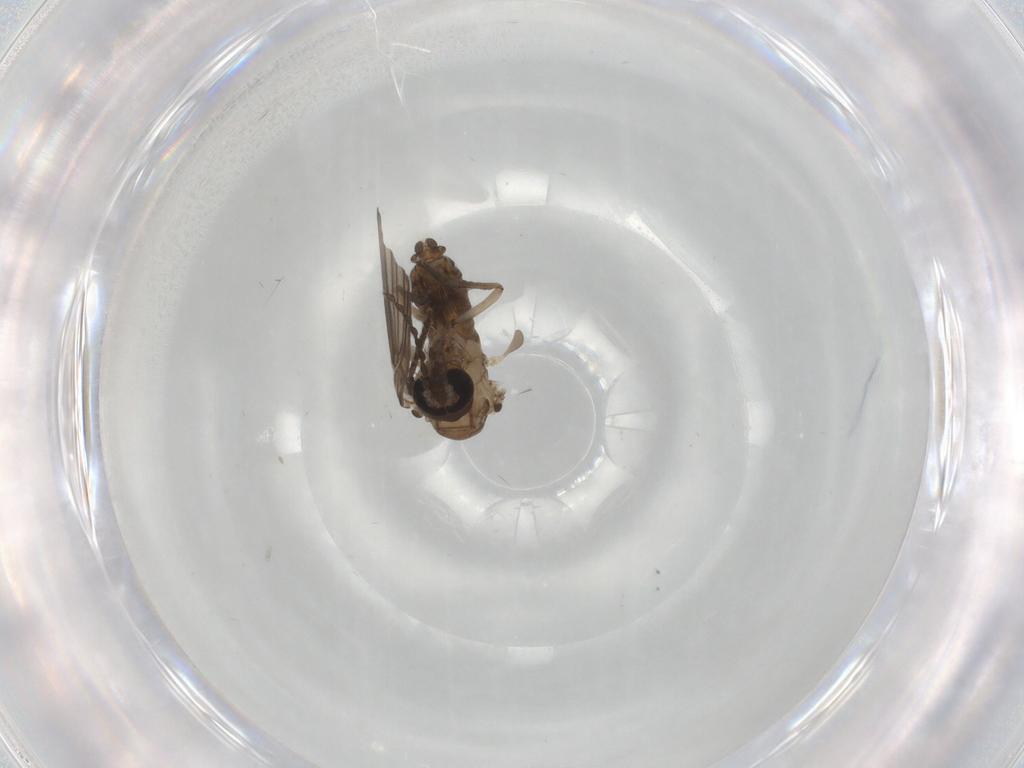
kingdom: Animalia
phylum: Arthropoda
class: Insecta
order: Diptera
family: Psychodidae
